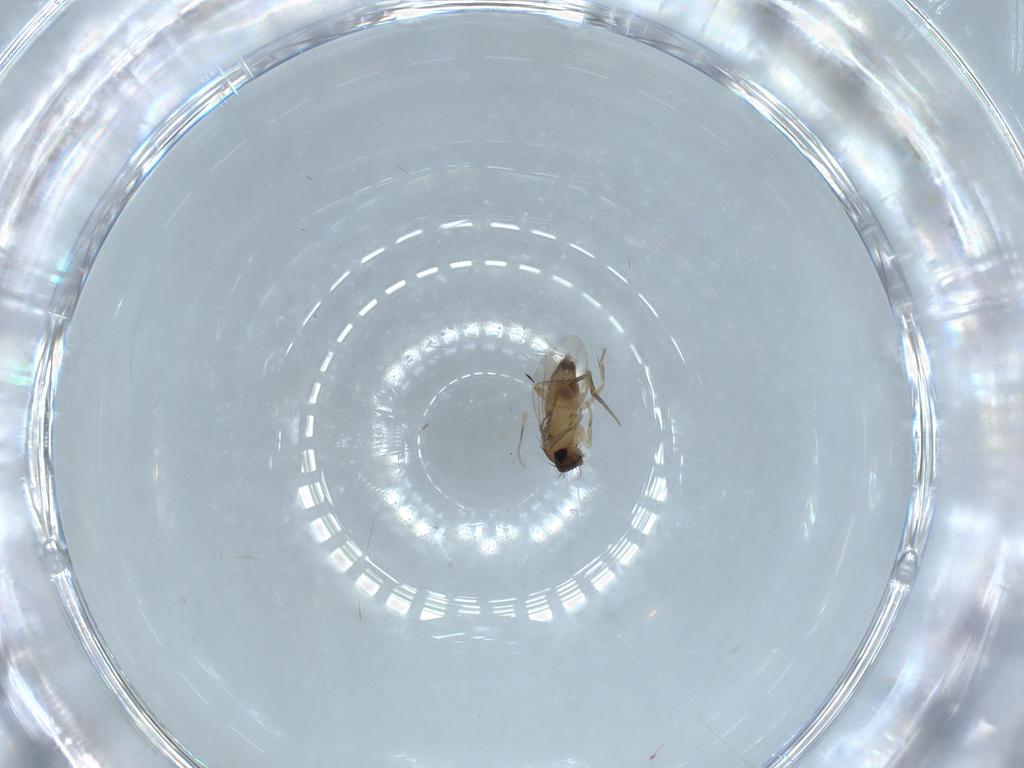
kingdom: Animalia
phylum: Arthropoda
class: Insecta
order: Diptera
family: Phoridae
